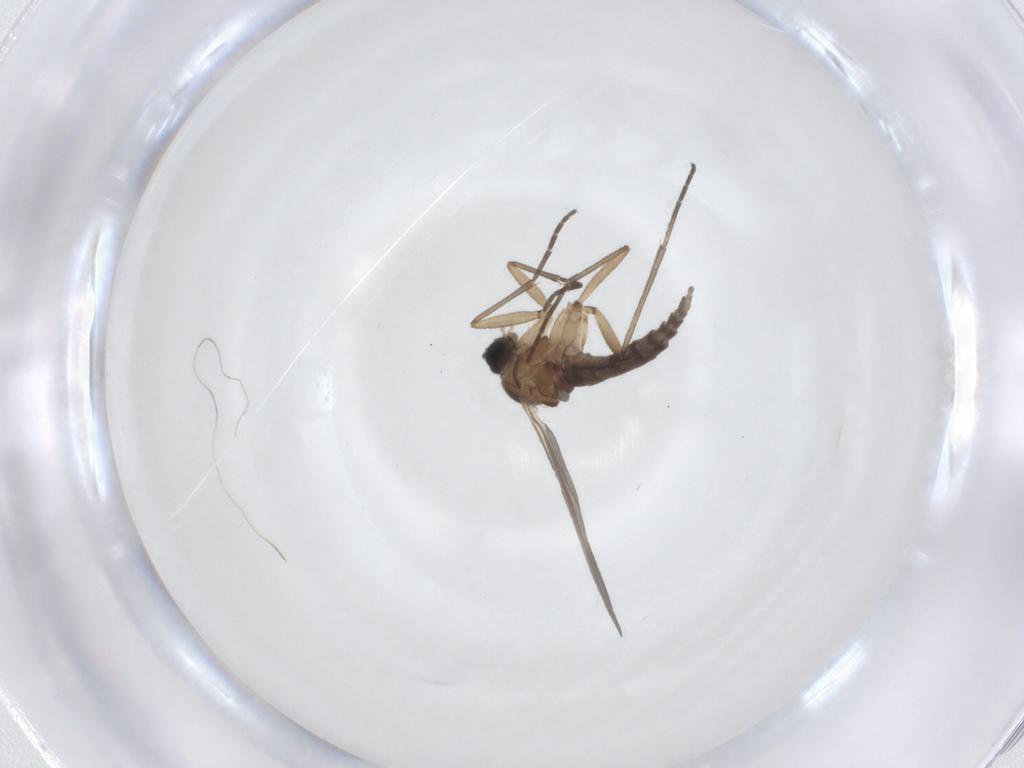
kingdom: Animalia
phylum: Arthropoda
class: Insecta
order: Diptera
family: Sciaridae
